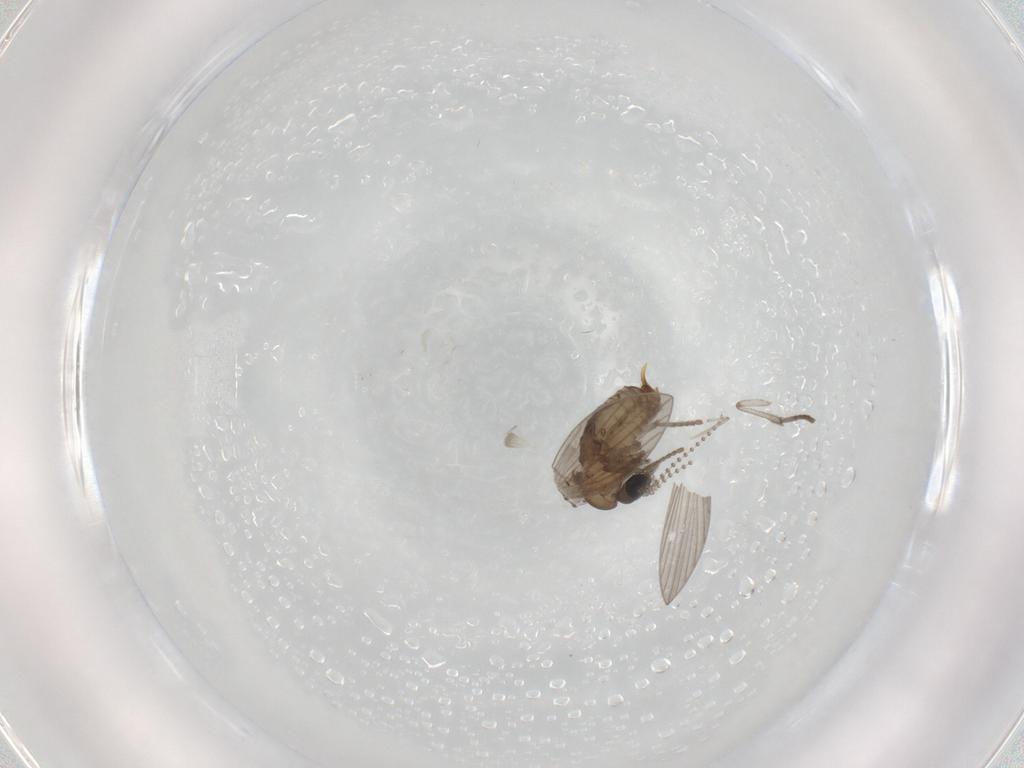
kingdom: Animalia
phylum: Arthropoda
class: Insecta
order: Diptera
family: Psychodidae
